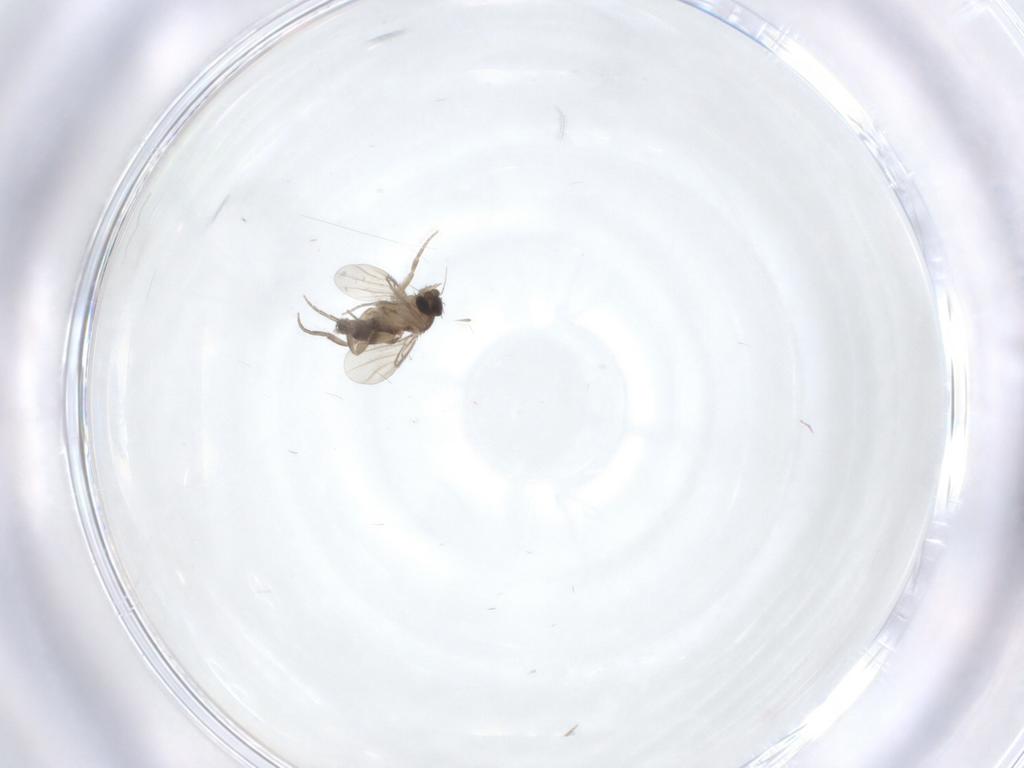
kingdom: Animalia
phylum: Arthropoda
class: Insecta
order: Diptera
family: Phoridae
